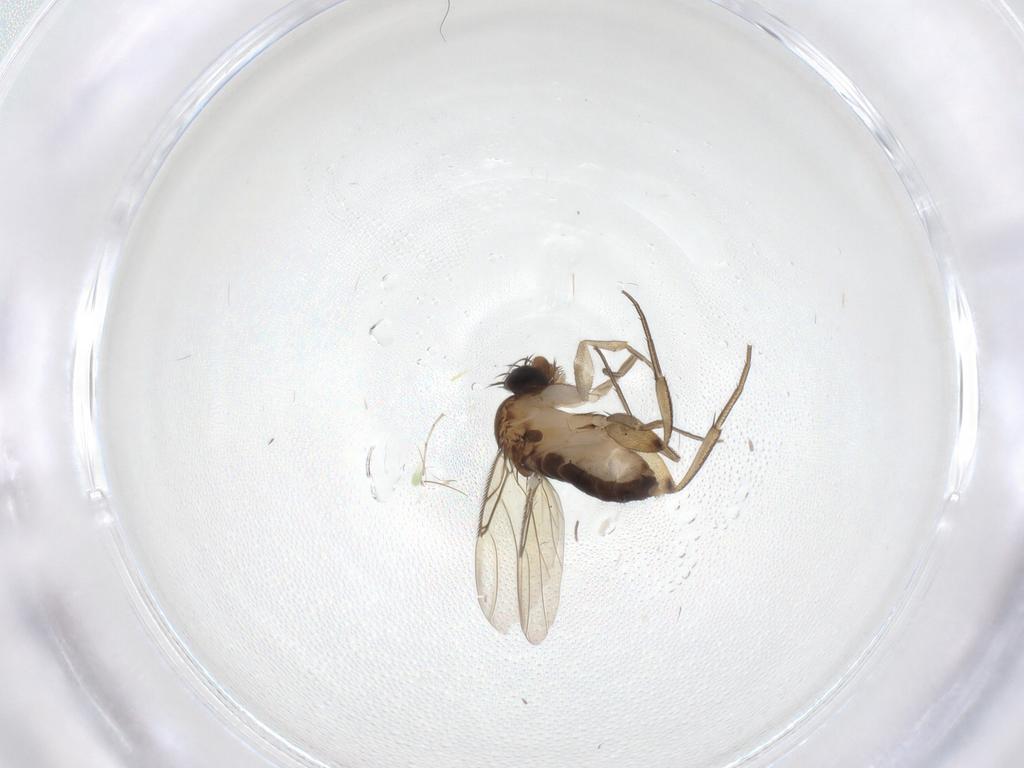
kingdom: Animalia
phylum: Arthropoda
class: Insecta
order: Diptera
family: Phoridae
